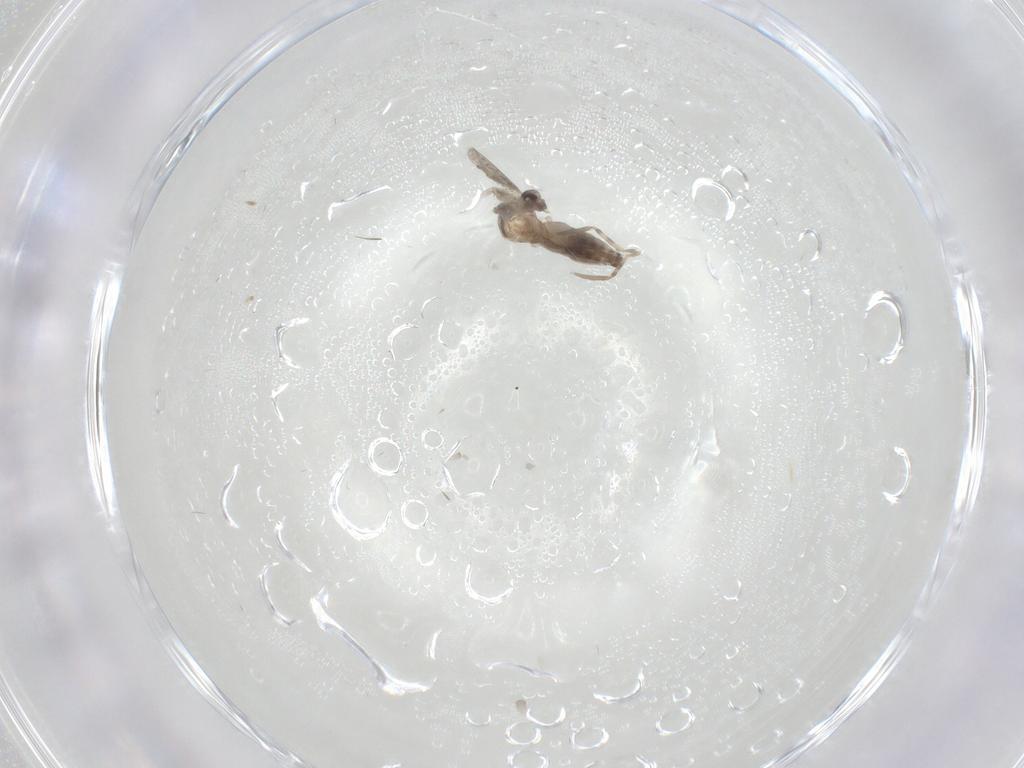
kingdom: Animalia
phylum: Arthropoda
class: Insecta
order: Diptera
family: Cecidomyiidae
